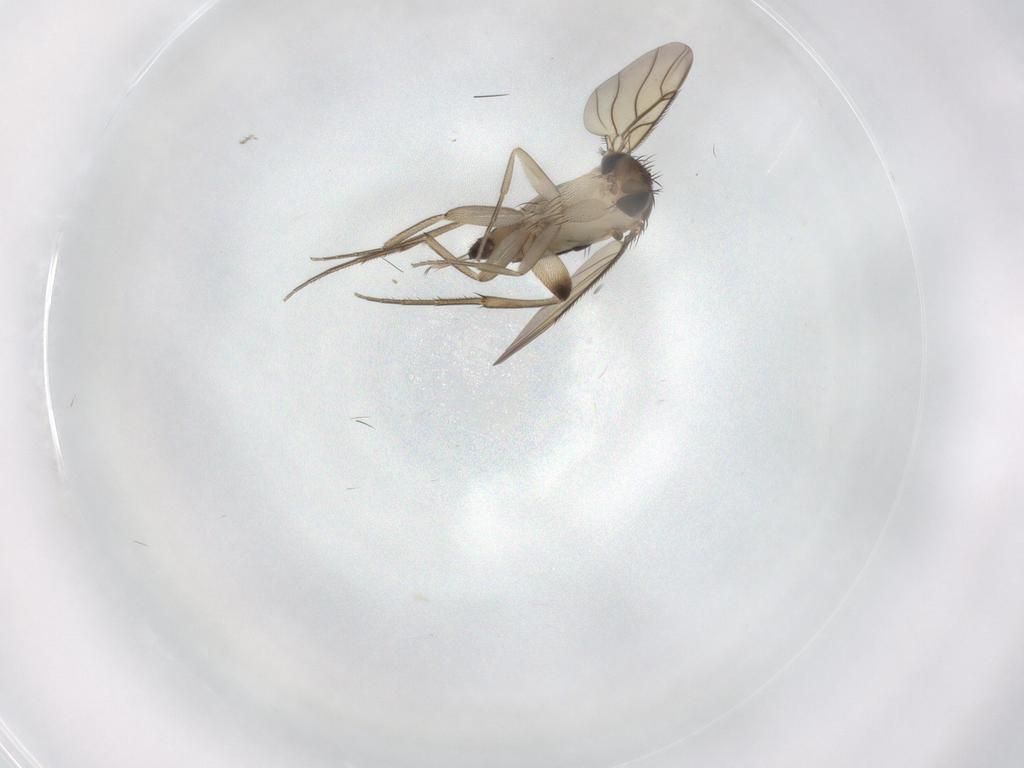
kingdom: Animalia
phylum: Arthropoda
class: Insecta
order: Diptera
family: Phoridae
